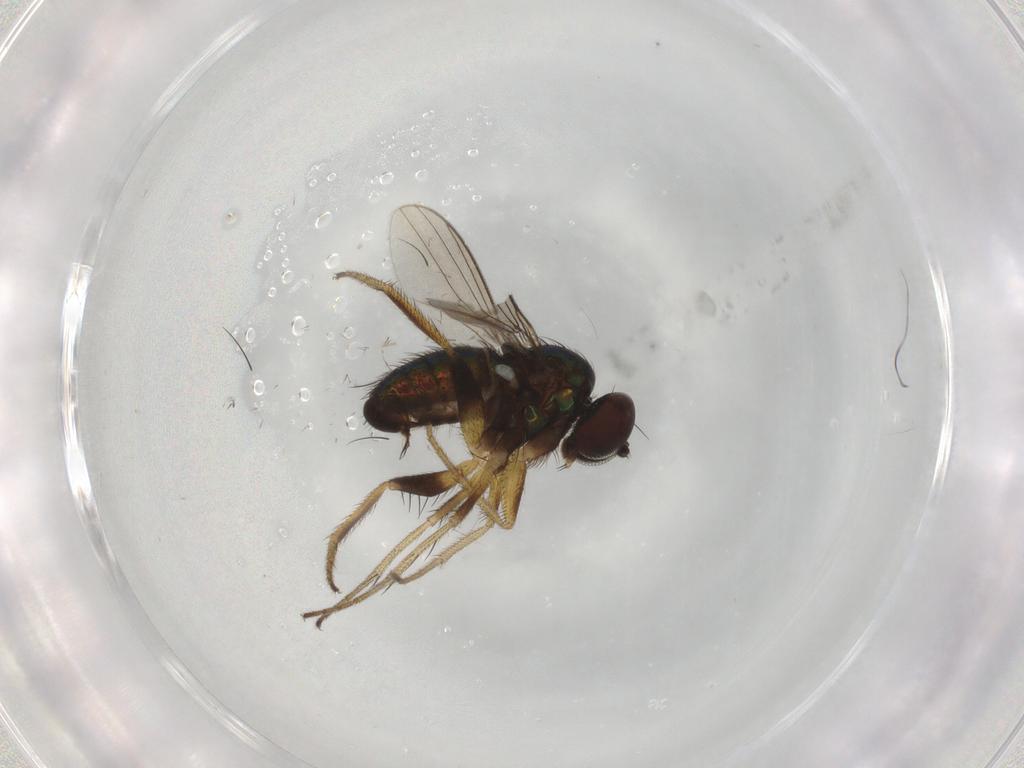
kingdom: Animalia
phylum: Arthropoda
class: Insecta
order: Diptera
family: Dolichopodidae
